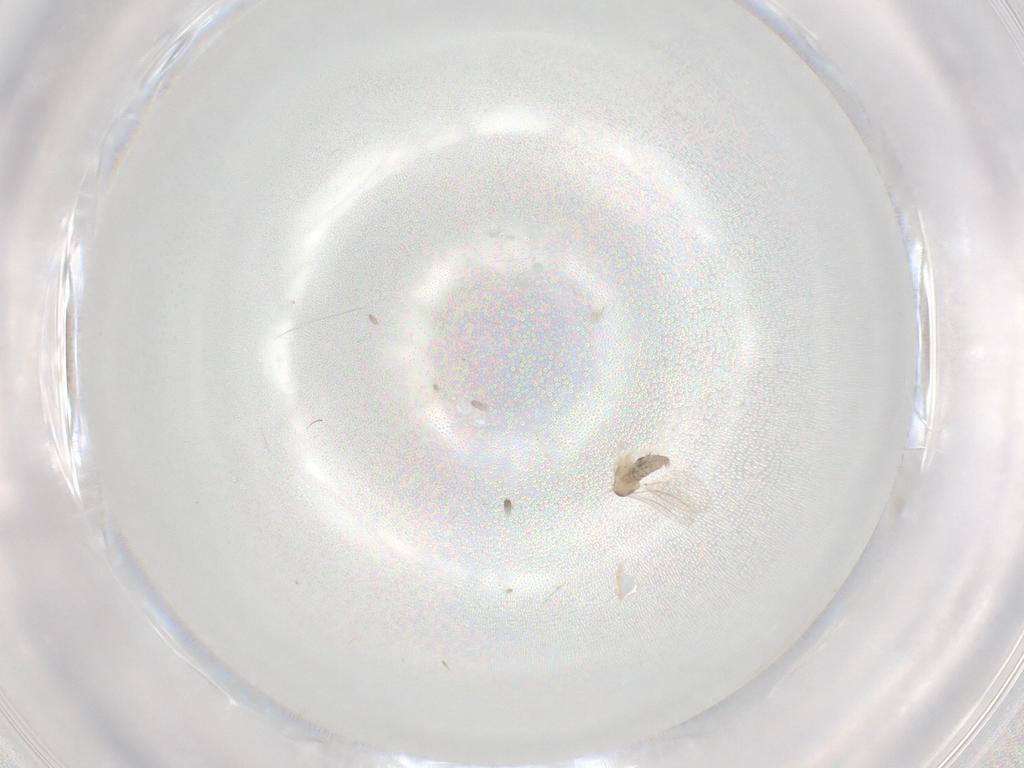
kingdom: Animalia
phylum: Arthropoda
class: Insecta
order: Diptera
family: Cecidomyiidae
